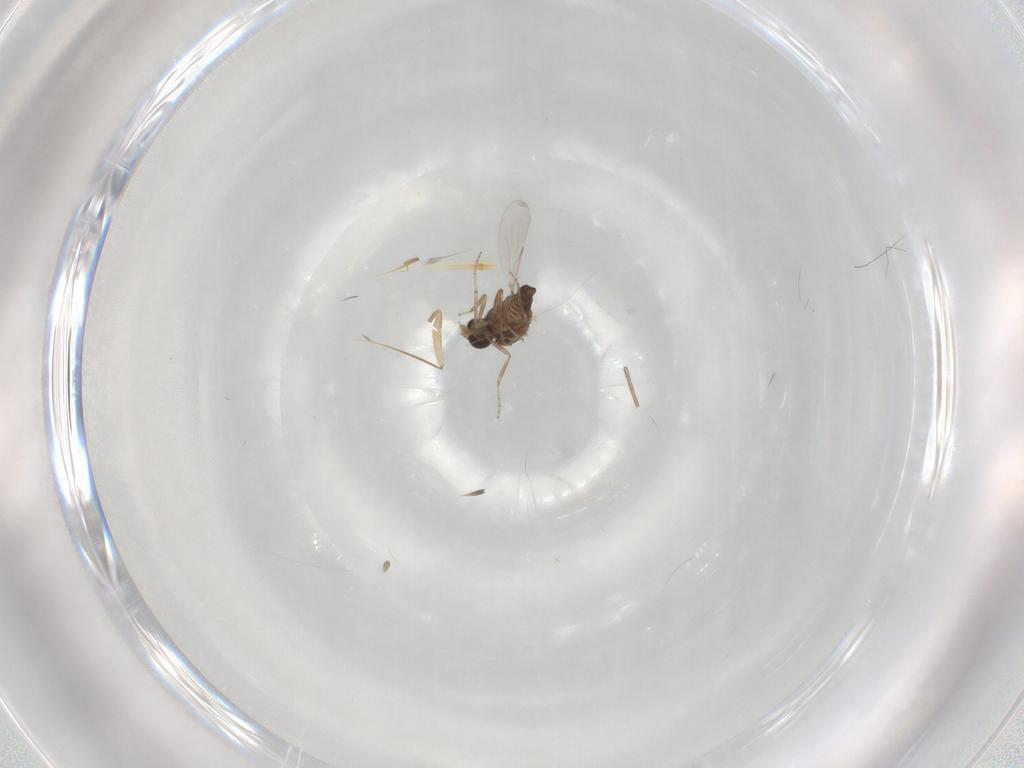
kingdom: Animalia
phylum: Arthropoda
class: Insecta
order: Diptera
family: Ceratopogonidae
